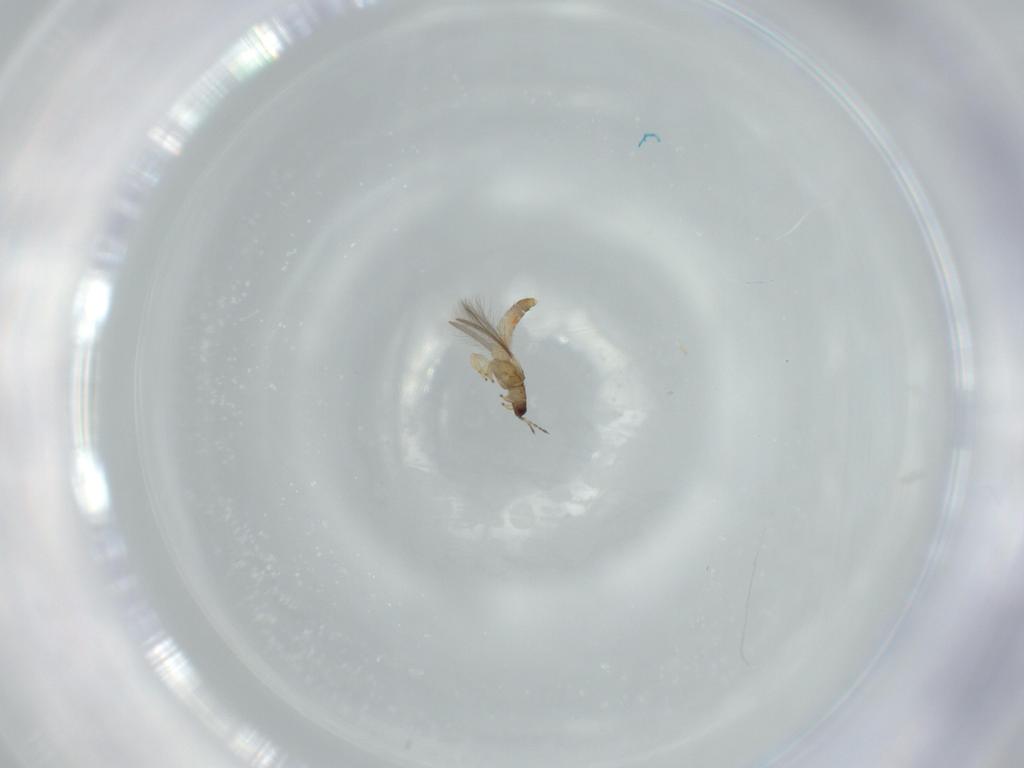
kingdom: Animalia
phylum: Arthropoda
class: Insecta
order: Thysanoptera
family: Thripidae
